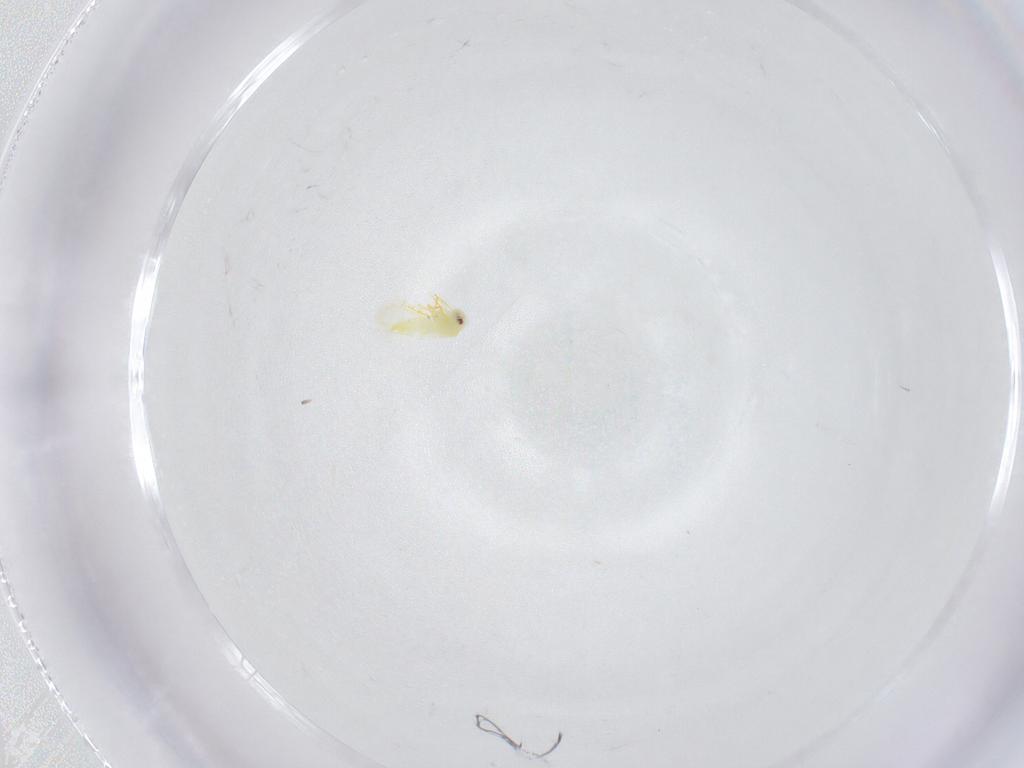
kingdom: Animalia
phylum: Arthropoda
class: Insecta
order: Hemiptera
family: Aleyrodidae
